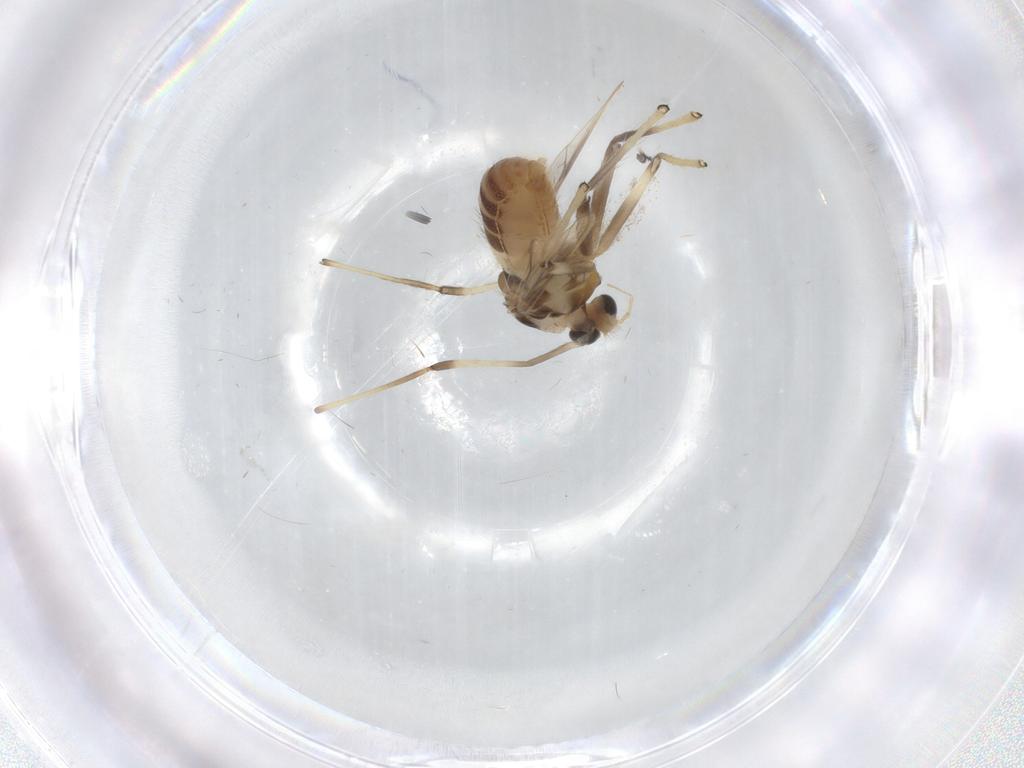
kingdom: Animalia
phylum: Arthropoda
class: Insecta
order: Diptera
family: Chironomidae
